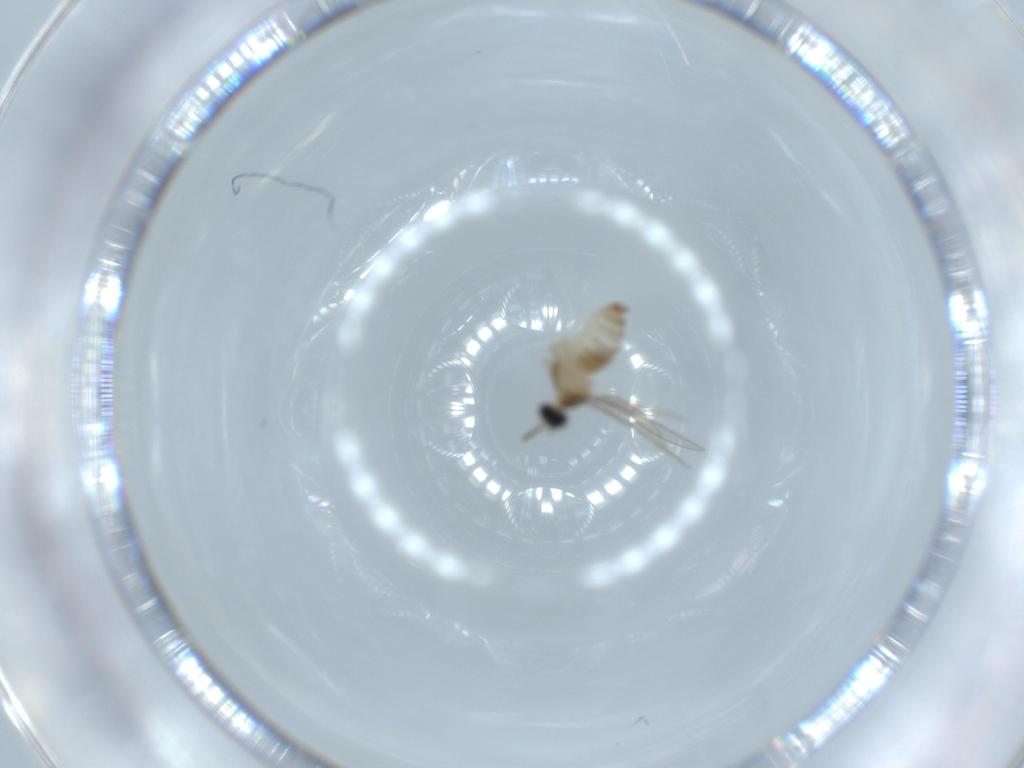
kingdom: Animalia
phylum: Arthropoda
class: Insecta
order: Diptera
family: Cecidomyiidae
